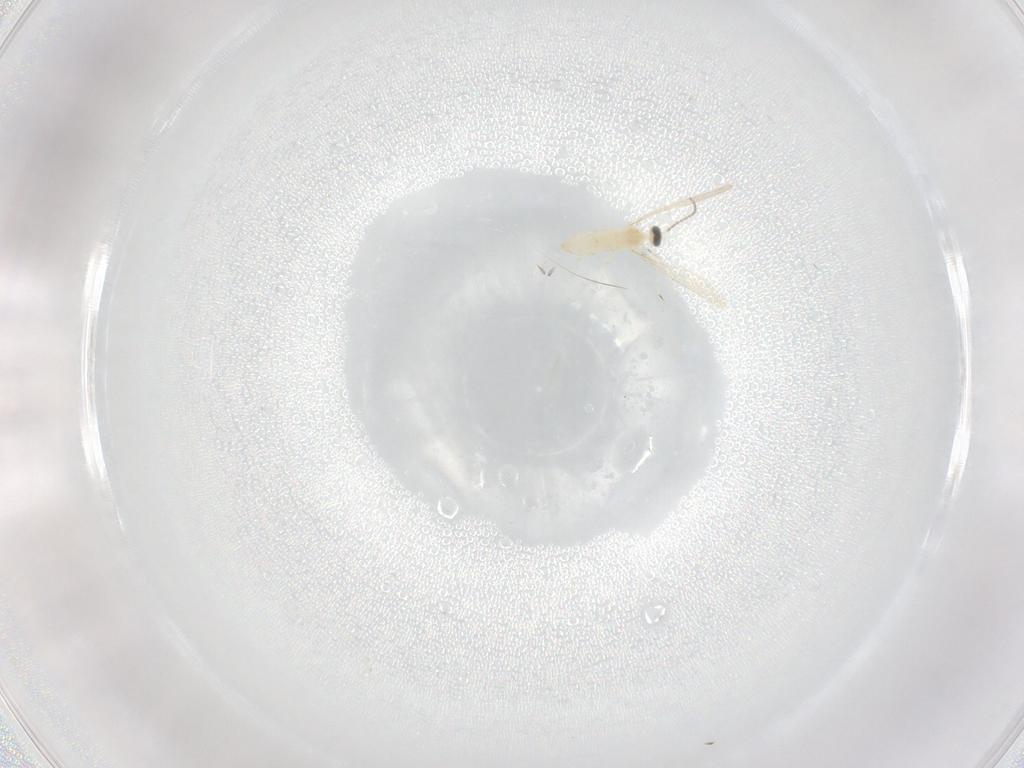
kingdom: Animalia
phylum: Arthropoda
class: Insecta
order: Diptera
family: Cecidomyiidae
